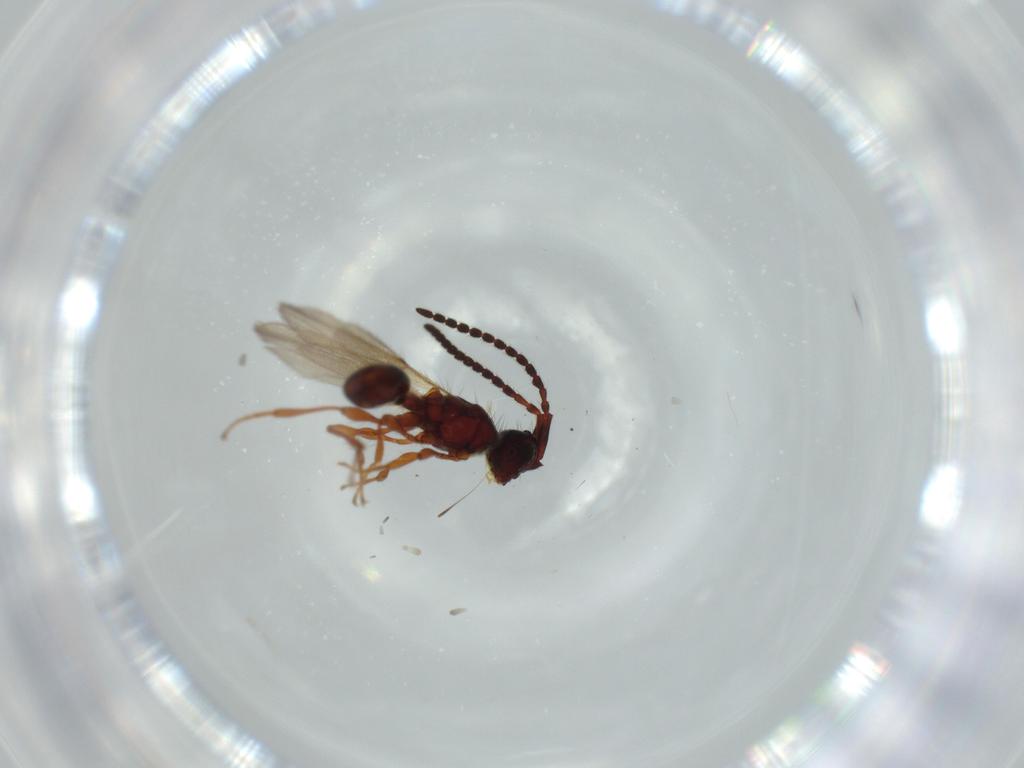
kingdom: Animalia
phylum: Arthropoda
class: Insecta
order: Hymenoptera
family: Diapriidae
